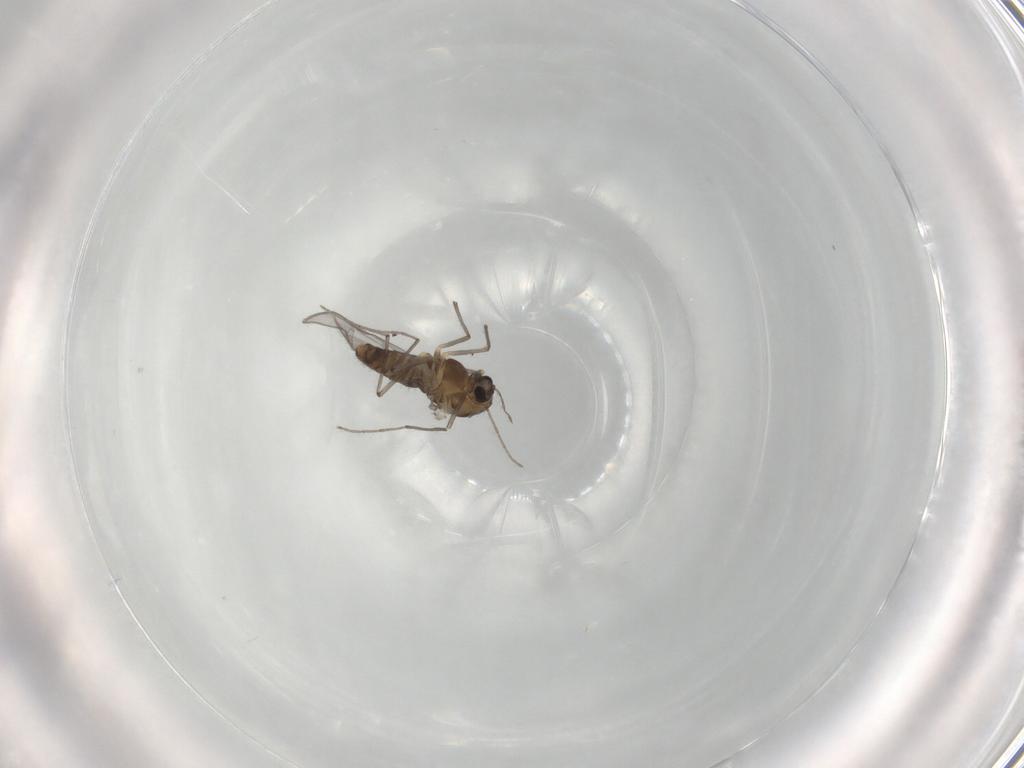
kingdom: Animalia
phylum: Arthropoda
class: Insecta
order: Diptera
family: Chironomidae
